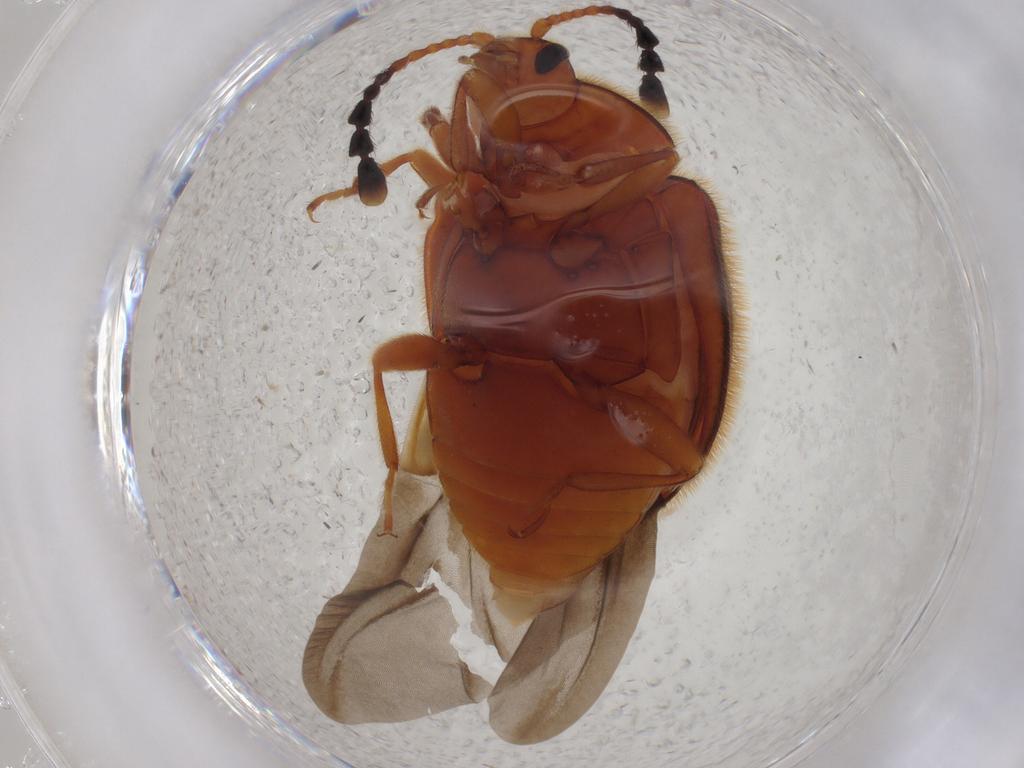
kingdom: Animalia
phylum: Arthropoda
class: Insecta
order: Coleoptera
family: Endomychidae
